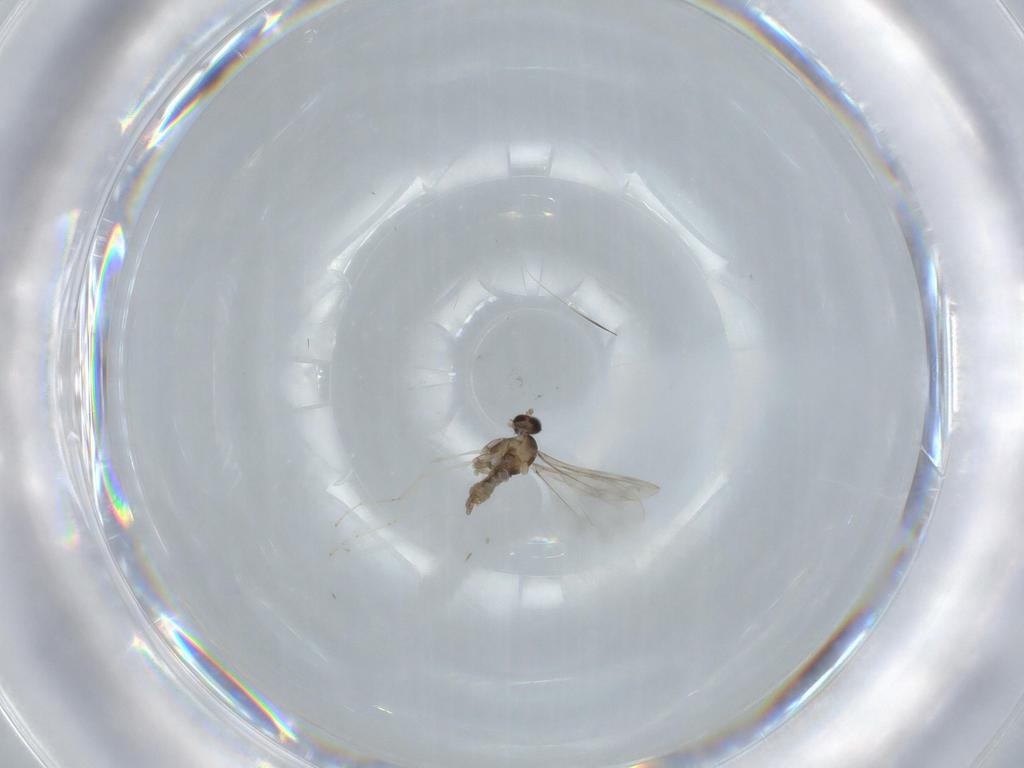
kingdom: Animalia
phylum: Arthropoda
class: Insecta
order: Diptera
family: Cecidomyiidae
